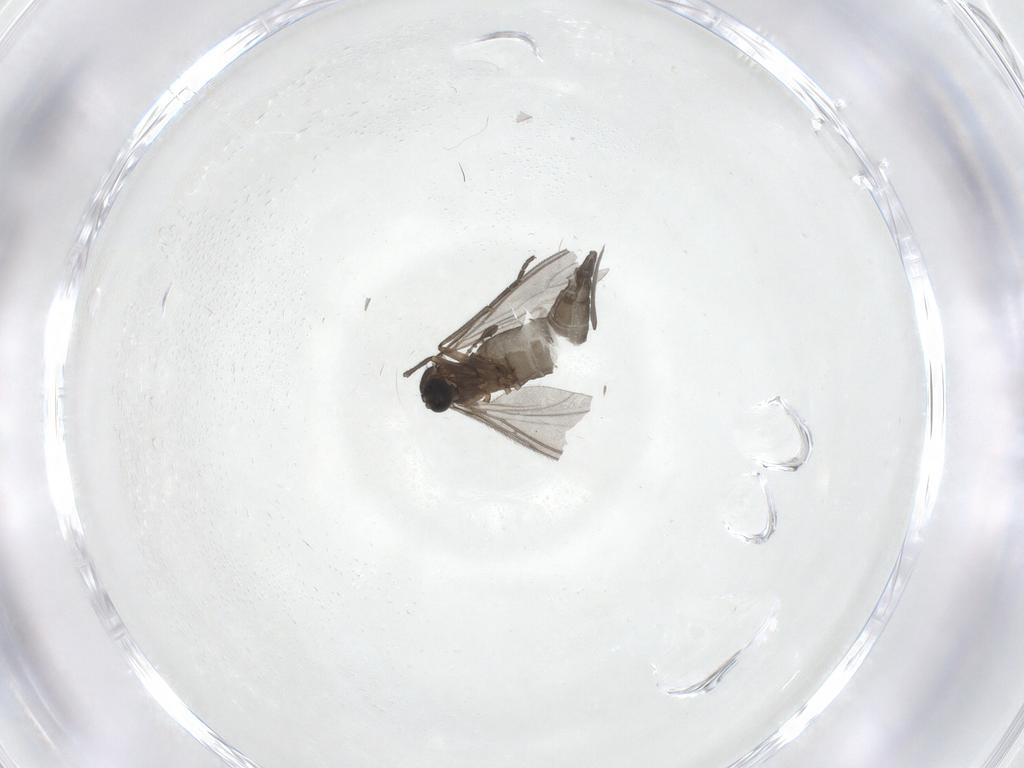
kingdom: Animalia
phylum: Arthropoda
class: Insecta
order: Diptera
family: Sciaridae
